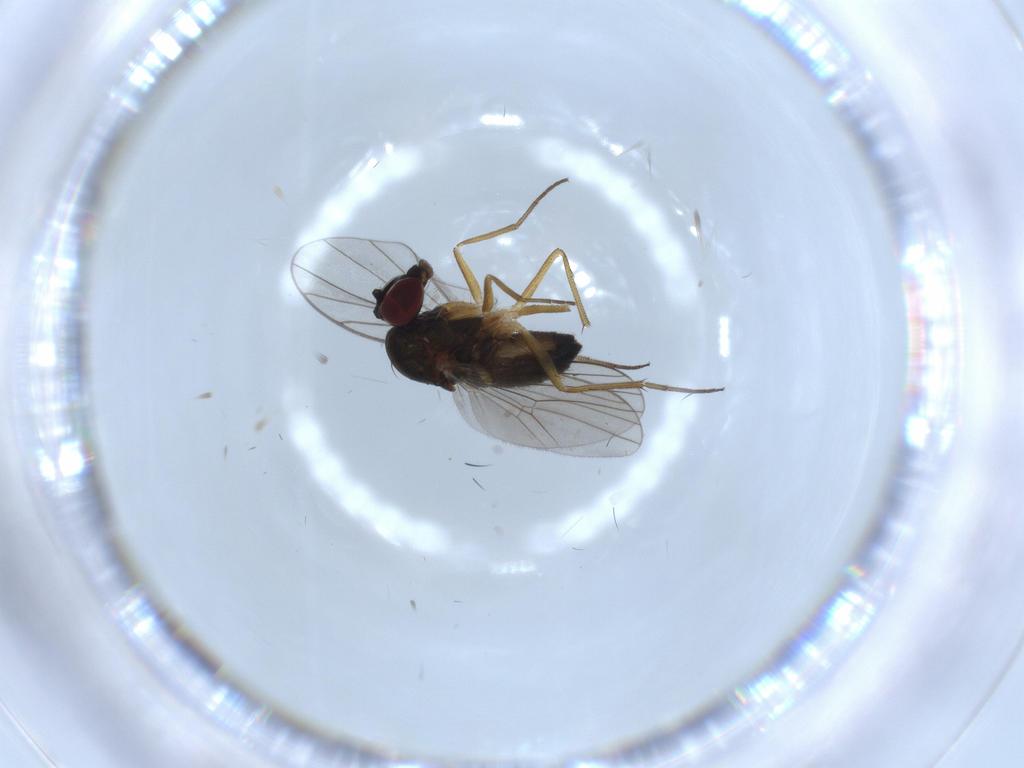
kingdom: Animalia
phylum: Arthropoda
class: Insecta
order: Diptera
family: Dolichopodidae
